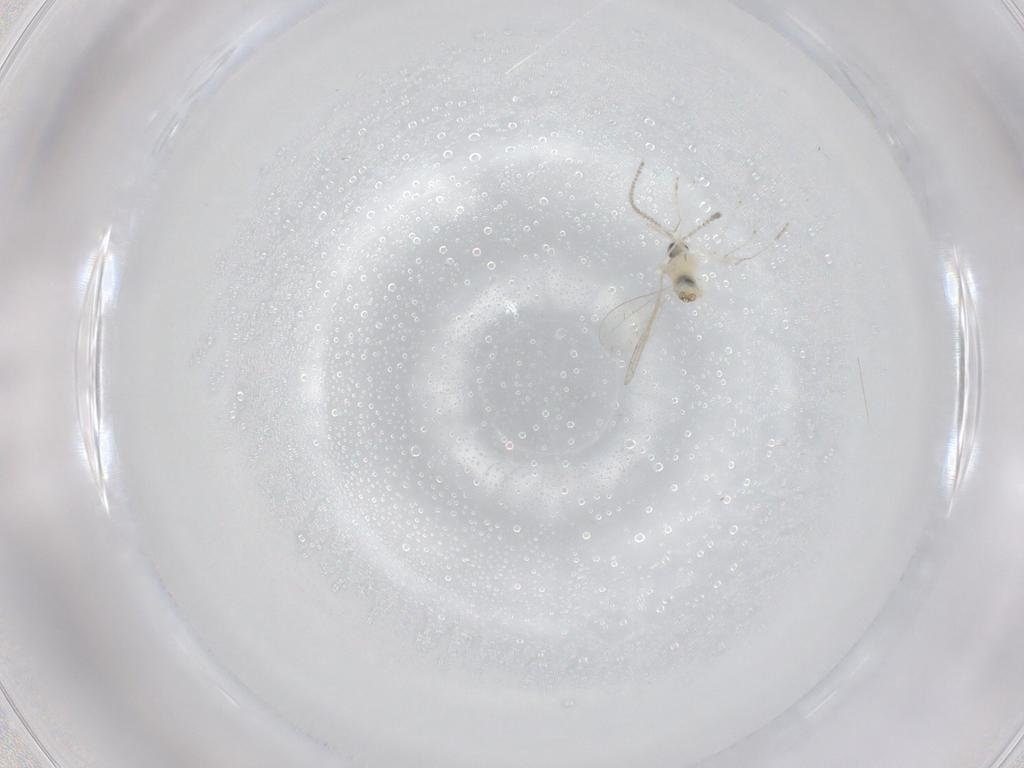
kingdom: Animalia
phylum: Arthropoda
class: Insecta
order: Diptera
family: Cecidomyiidae
